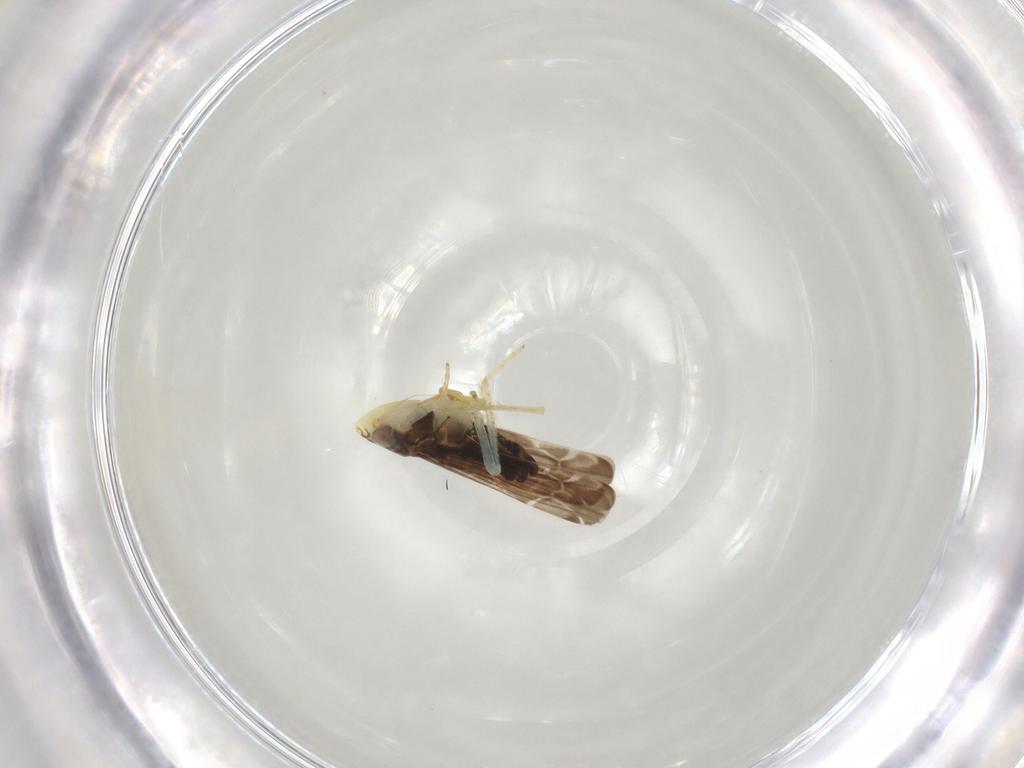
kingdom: Animalia
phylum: Arthropoda
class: Insecta
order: Hemiptera
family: Cicadellidae
